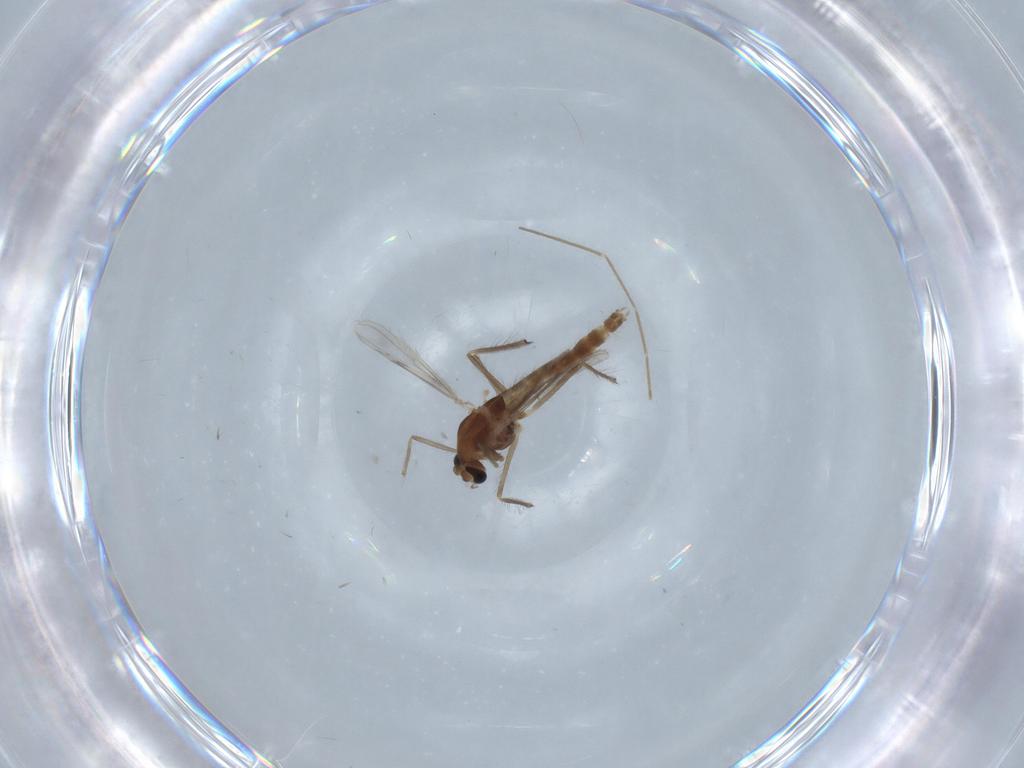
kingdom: Animalia
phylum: Arthropoda
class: Insecta
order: Diptera
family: Chironomidae
